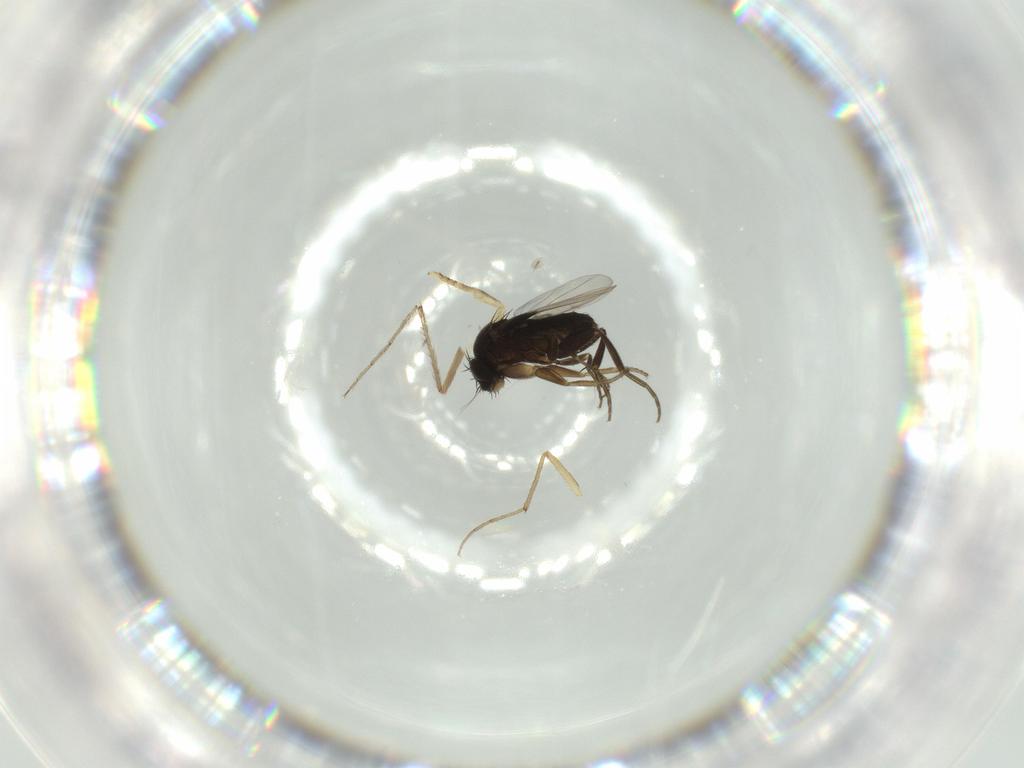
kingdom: Animalia
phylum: Arthropoda
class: Insecta
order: Diptera
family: Phoridae
